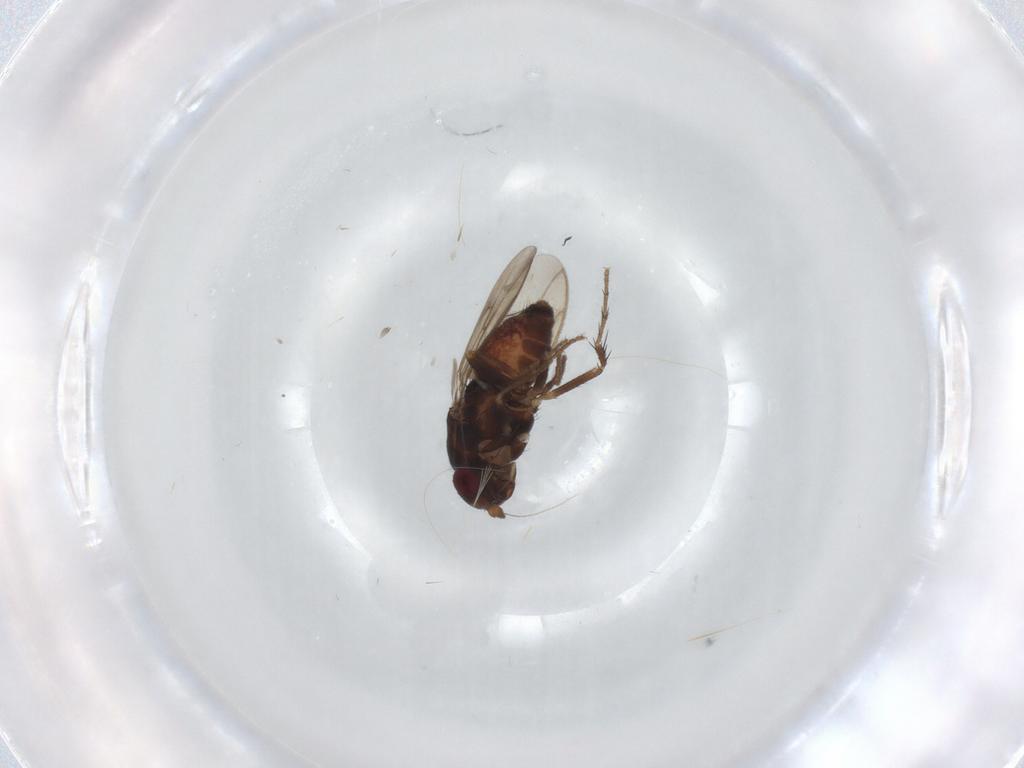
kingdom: Animalia
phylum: Arthropoda
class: Insecta
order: Diptera
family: Sphaeroceridae
